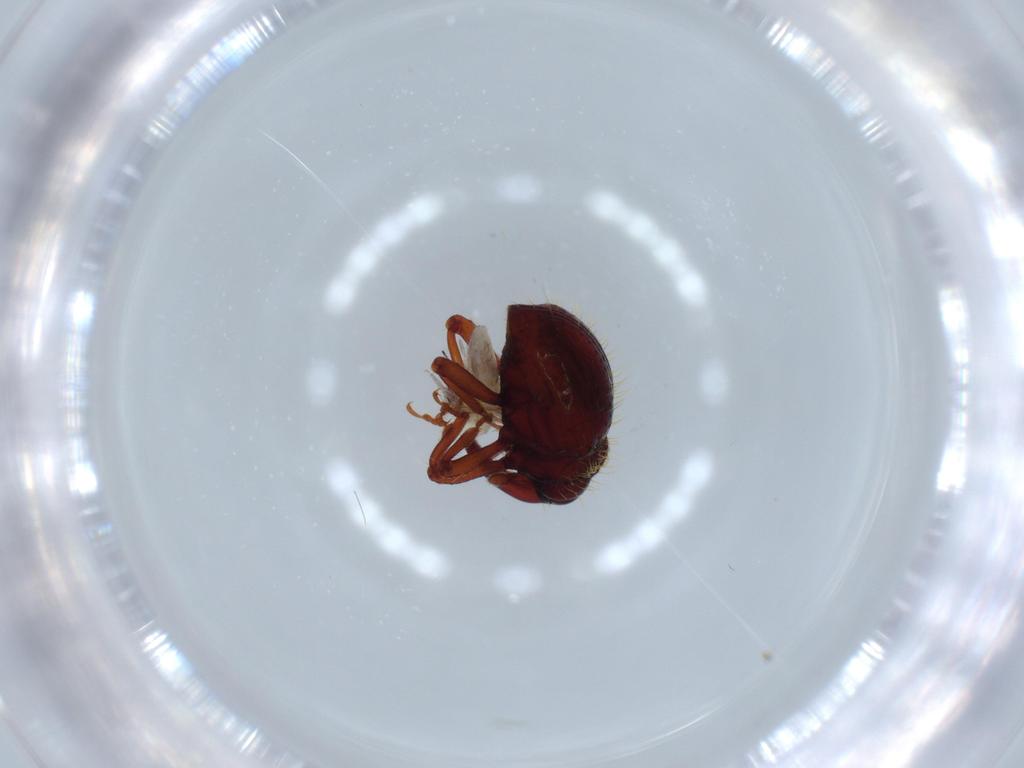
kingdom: Animalia
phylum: Arthropoda
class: Insecta
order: Coleoptera
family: Curculionidae
